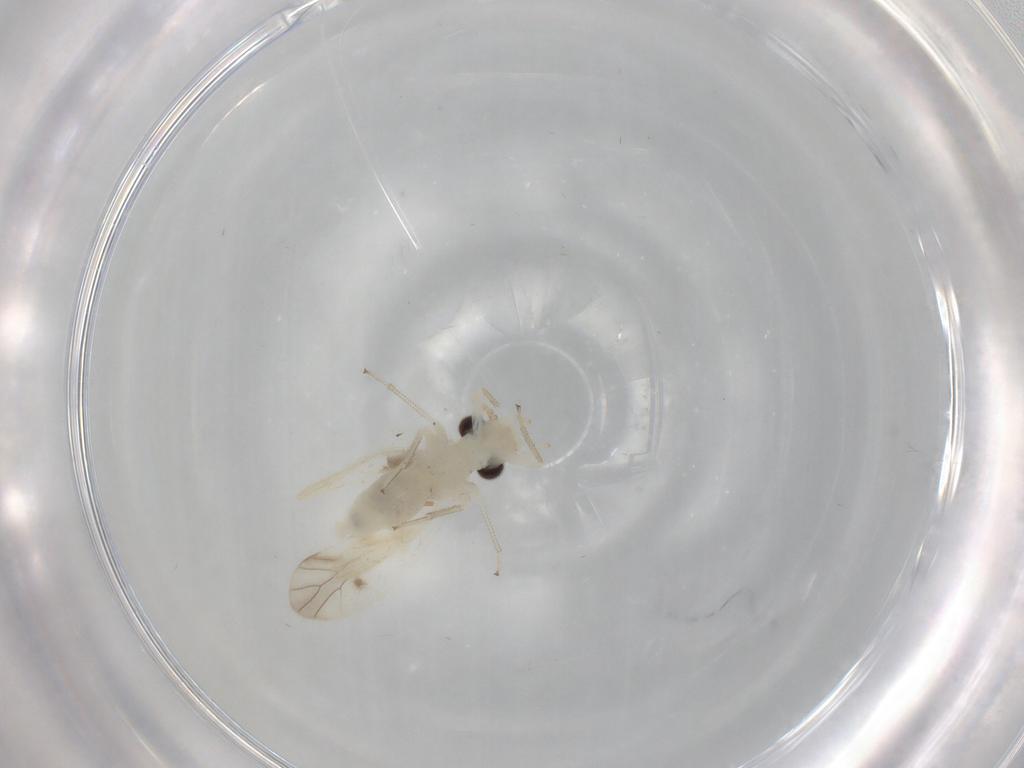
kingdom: Animalia
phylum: Arthropoda
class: Insecta
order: Psocodea
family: Caeciliusidae
